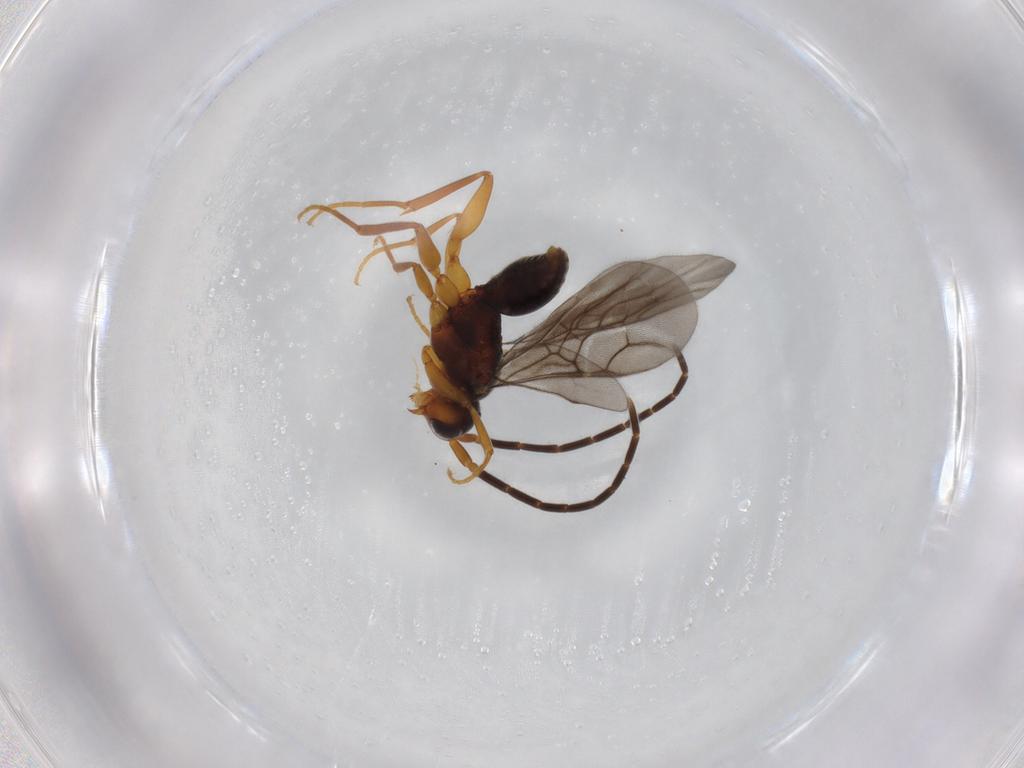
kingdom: Animalia
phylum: Arthropoda
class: Insecta
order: Hymenoptera
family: Embolemidae
